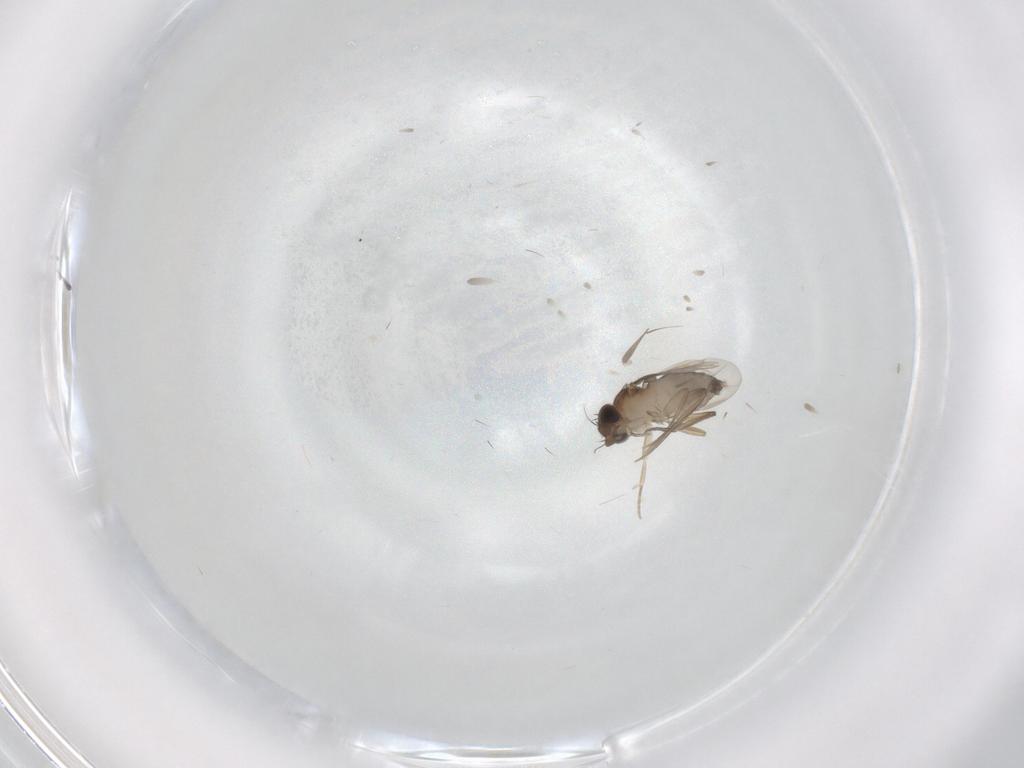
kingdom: Animalia
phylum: Arthropoda
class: Insecta
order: Diptera
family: Phoridae
